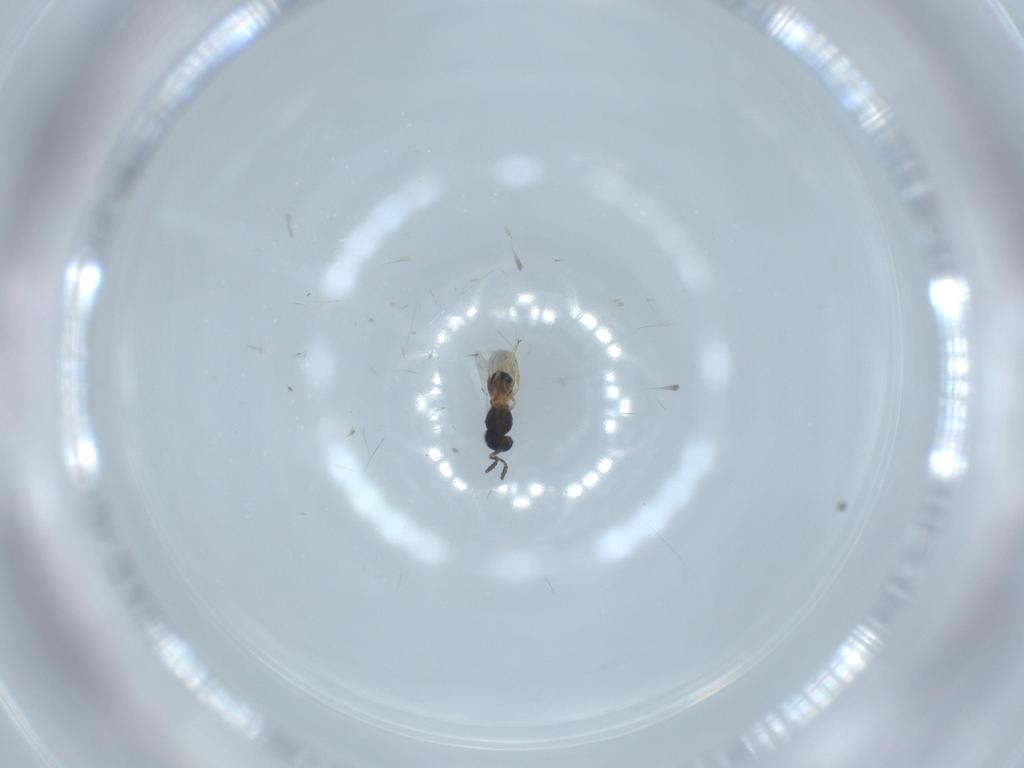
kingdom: Animalia
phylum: Arthropoda
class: Insecta
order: Hymenoptera
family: Scelionidae
